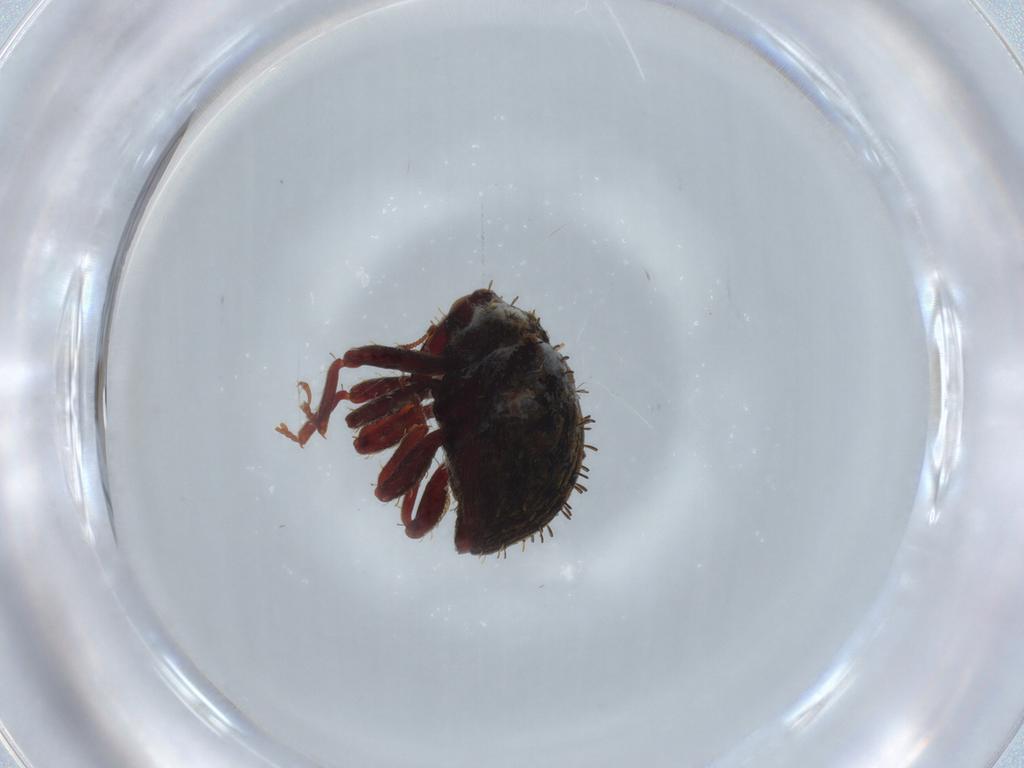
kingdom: Animalia
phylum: Arthropoda
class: Insecta
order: Coleoptera
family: Curculionidae
